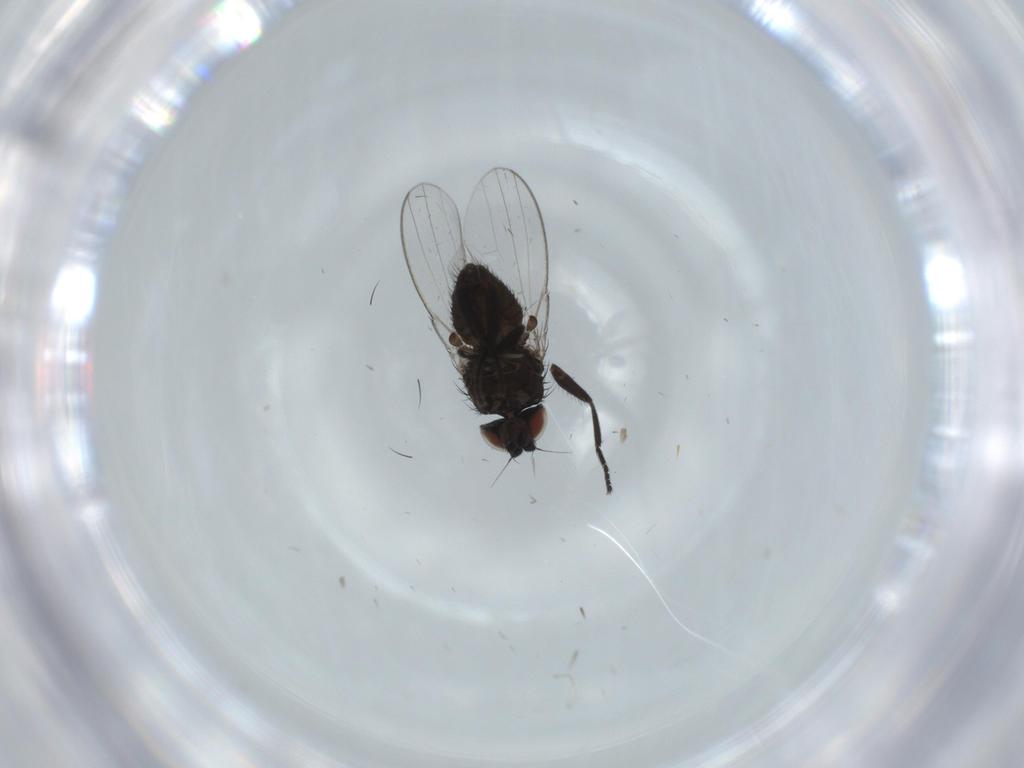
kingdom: Animalia
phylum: Arthropoda
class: Insecta
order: Diptera
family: Milichiidae
